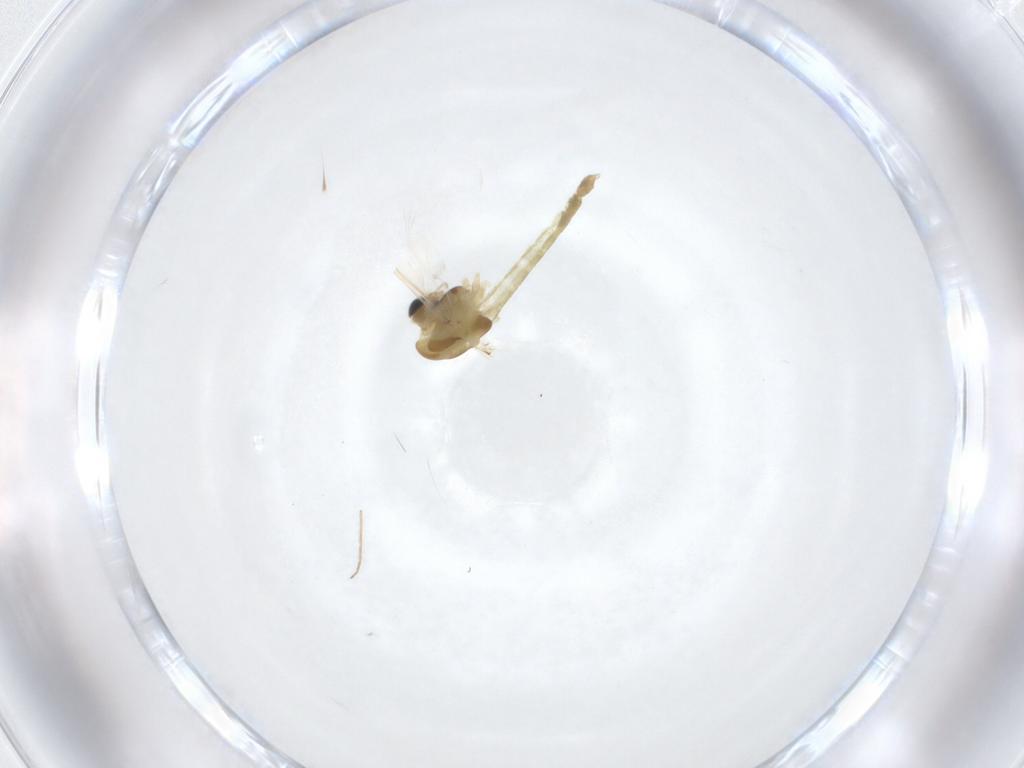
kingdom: Animalia
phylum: Arthropoda
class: Insecta
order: Diptera
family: Chironomidae
